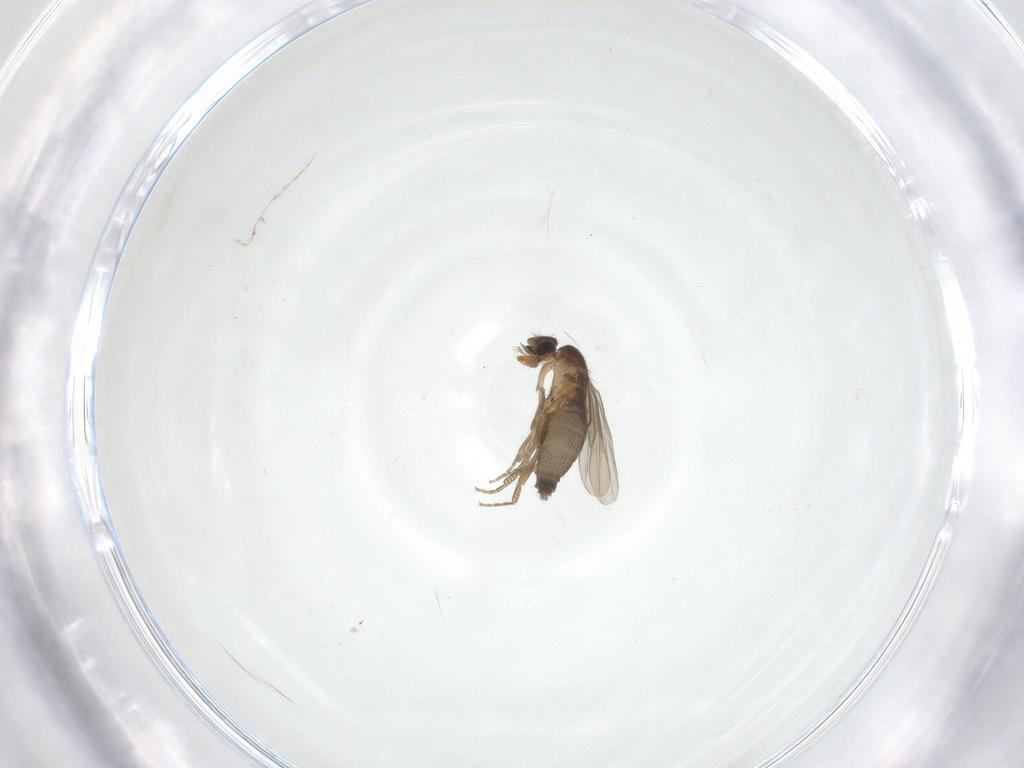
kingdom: Animalia
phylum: Arthropoda
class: Insecta
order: Diptera
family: Phoridae
